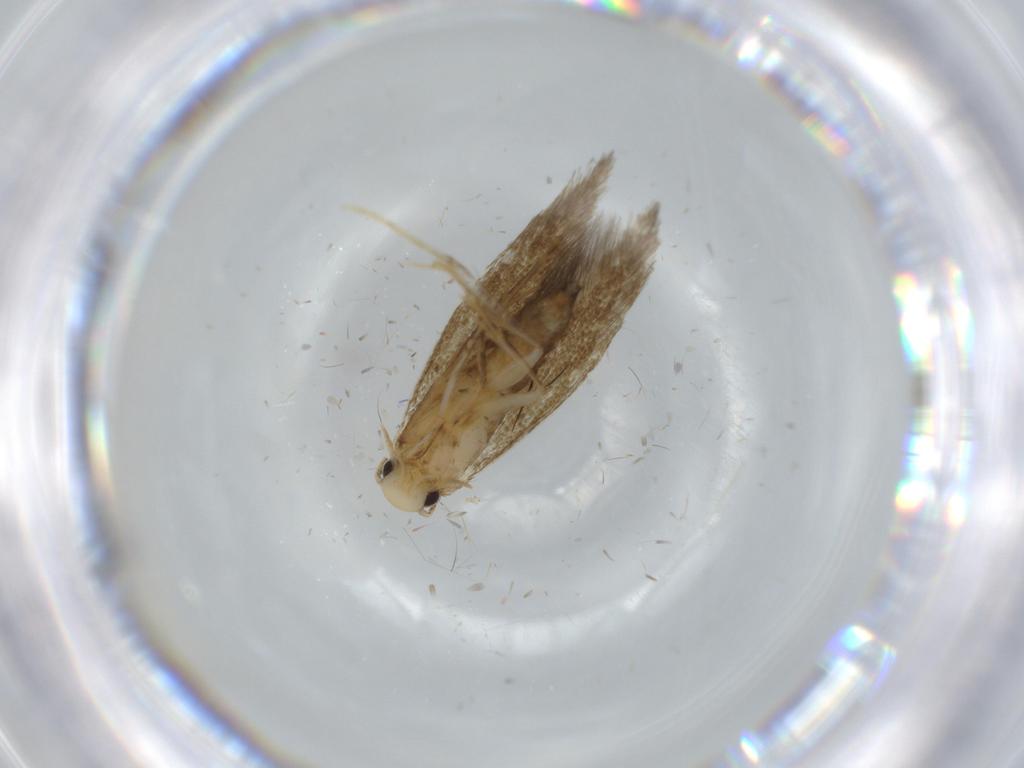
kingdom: Animalia
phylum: Arthropoda
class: Insecta
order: Lepidoptera
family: Tineidae
